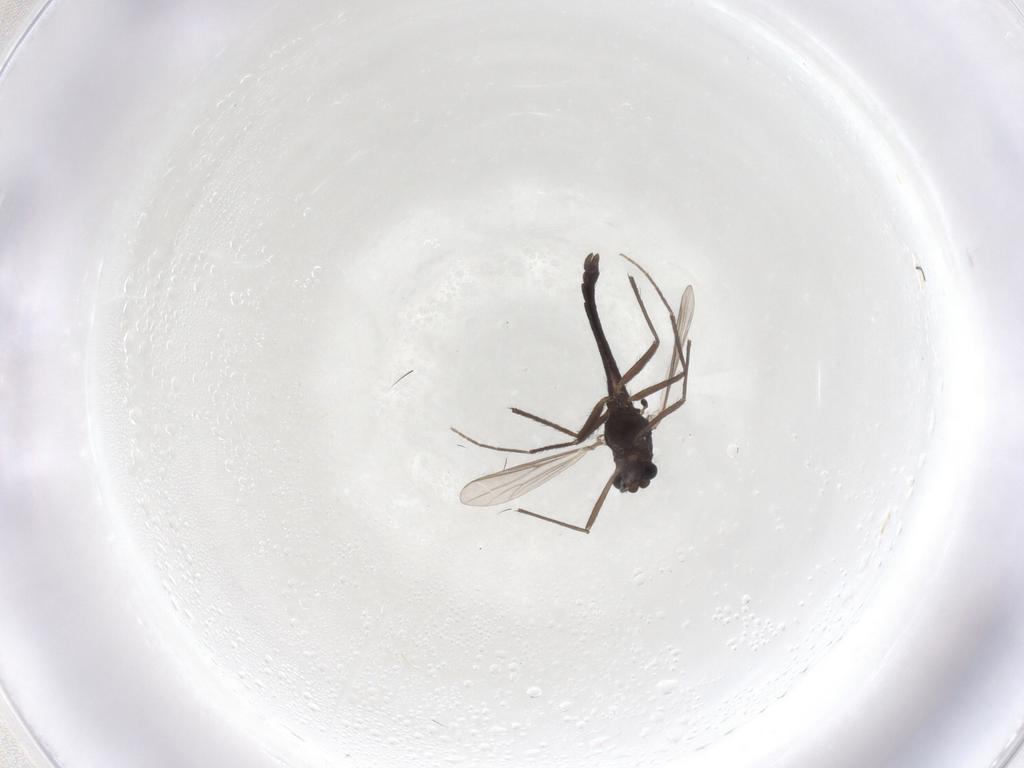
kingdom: Animalia
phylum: Arthropoda
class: Insecta
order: Diptera
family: Chironomidae
